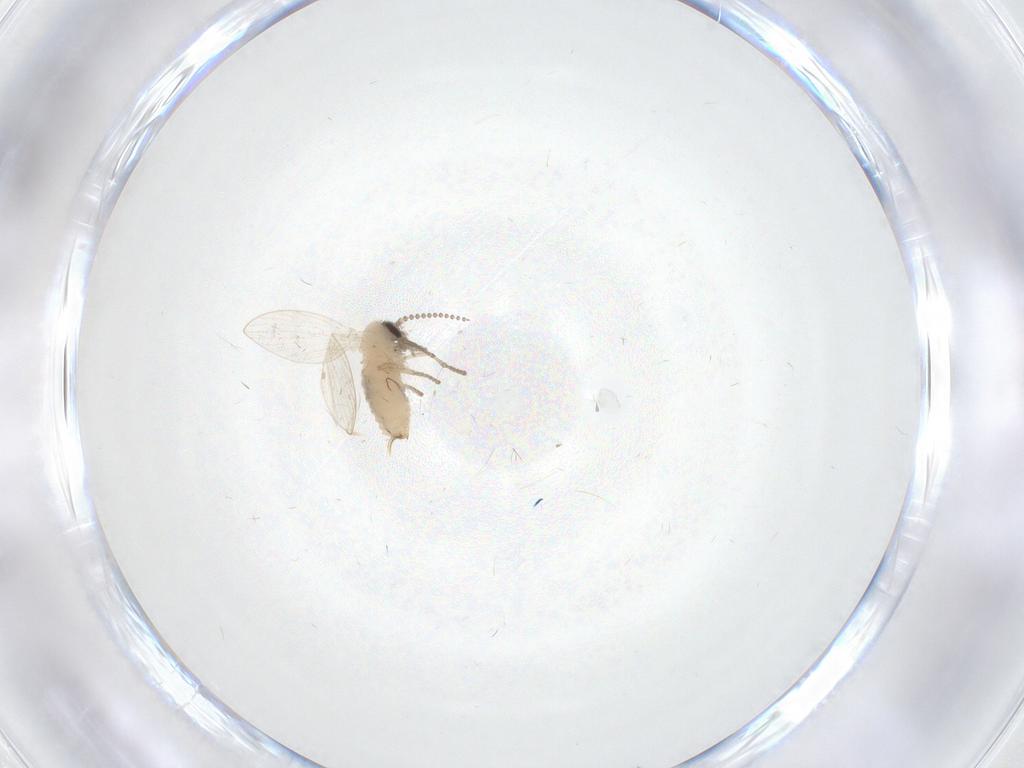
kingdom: Animalia
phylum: Arthropoda
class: Insecta
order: Diptera
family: Psychodidae
